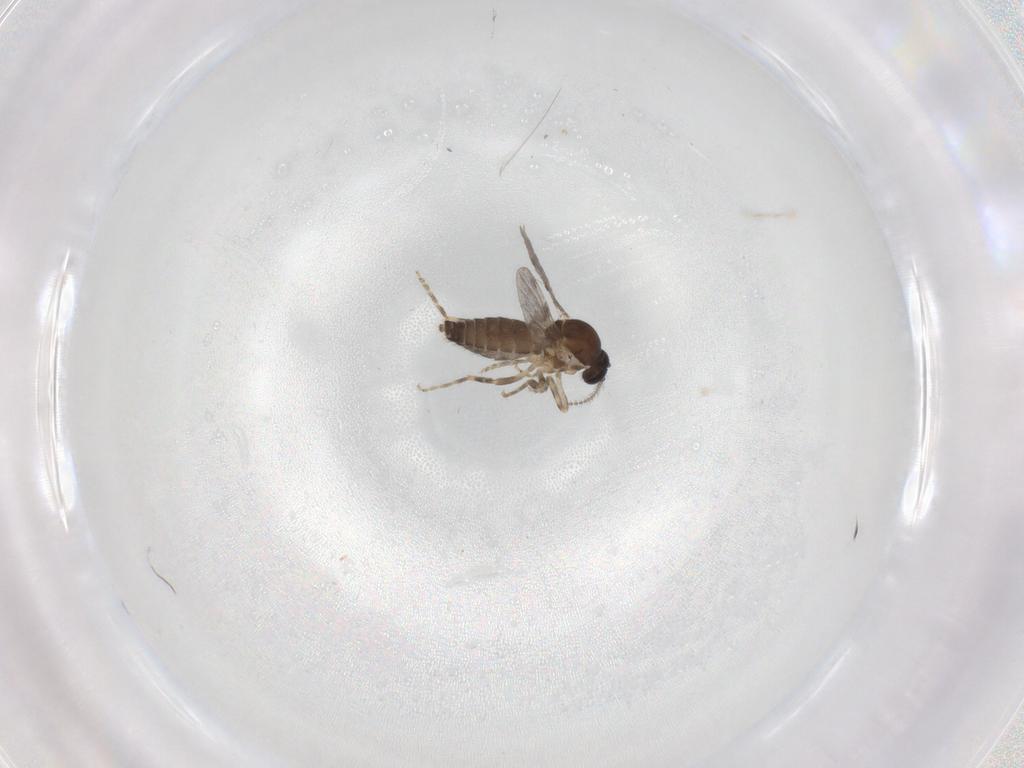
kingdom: Animalia
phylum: Arthropoda
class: Insecta
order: Diptera
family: Ceratopogonidae
